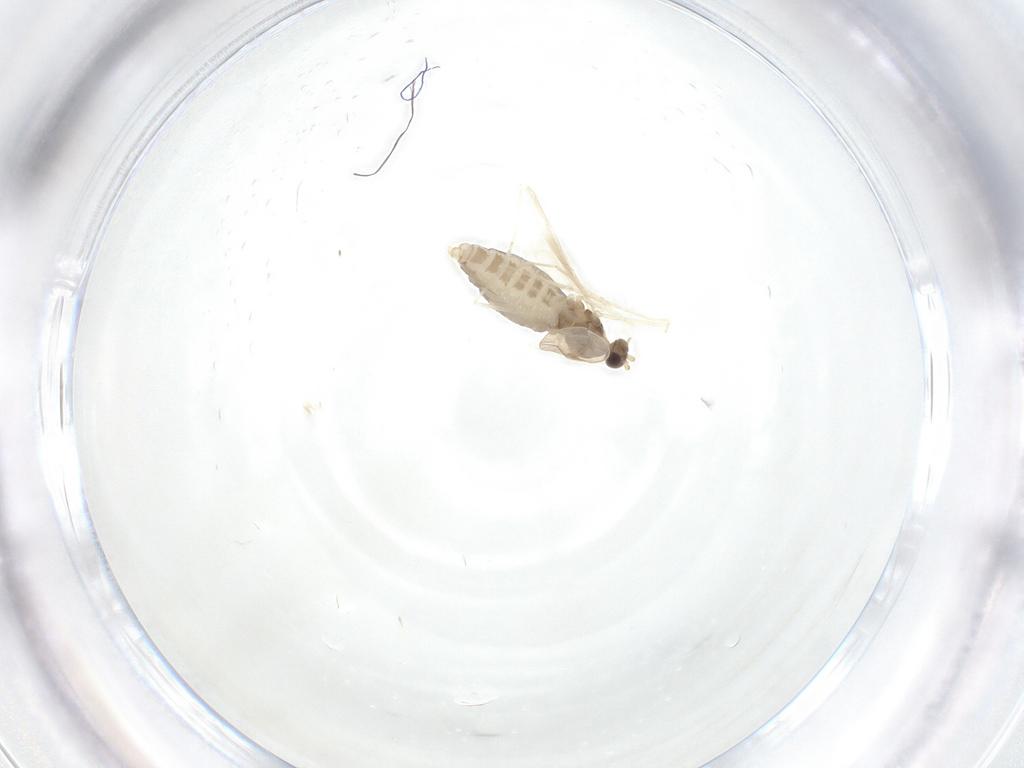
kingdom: Animalia
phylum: Arthropoda
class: Insecta
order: Diptera
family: Cecidomyiidae
